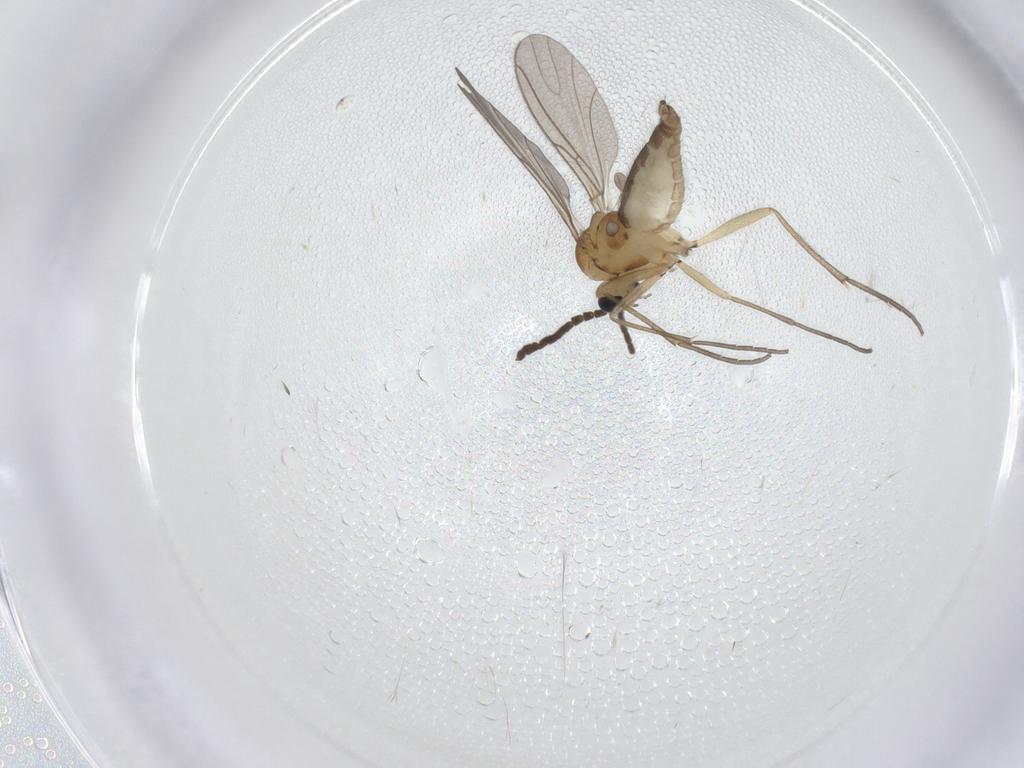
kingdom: Animalia
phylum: Arthropoda
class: Insecta
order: Diptera
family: Sciaridae
